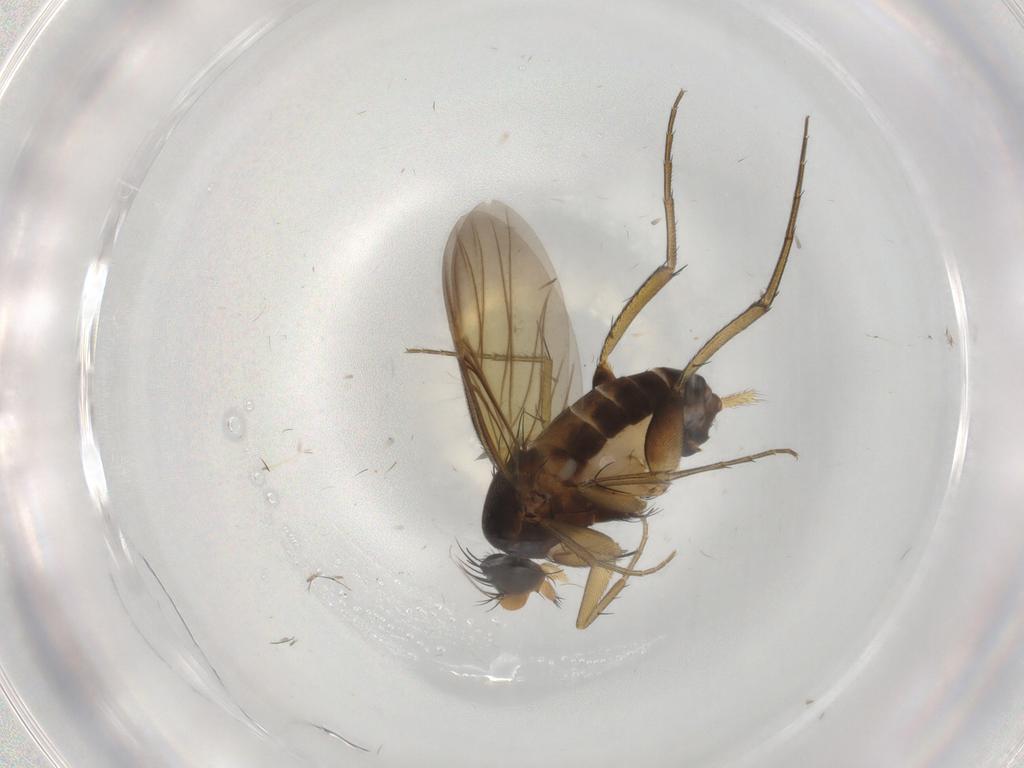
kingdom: Animalia
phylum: Arthropoda
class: Insecta
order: Diptera
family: Phoridae
